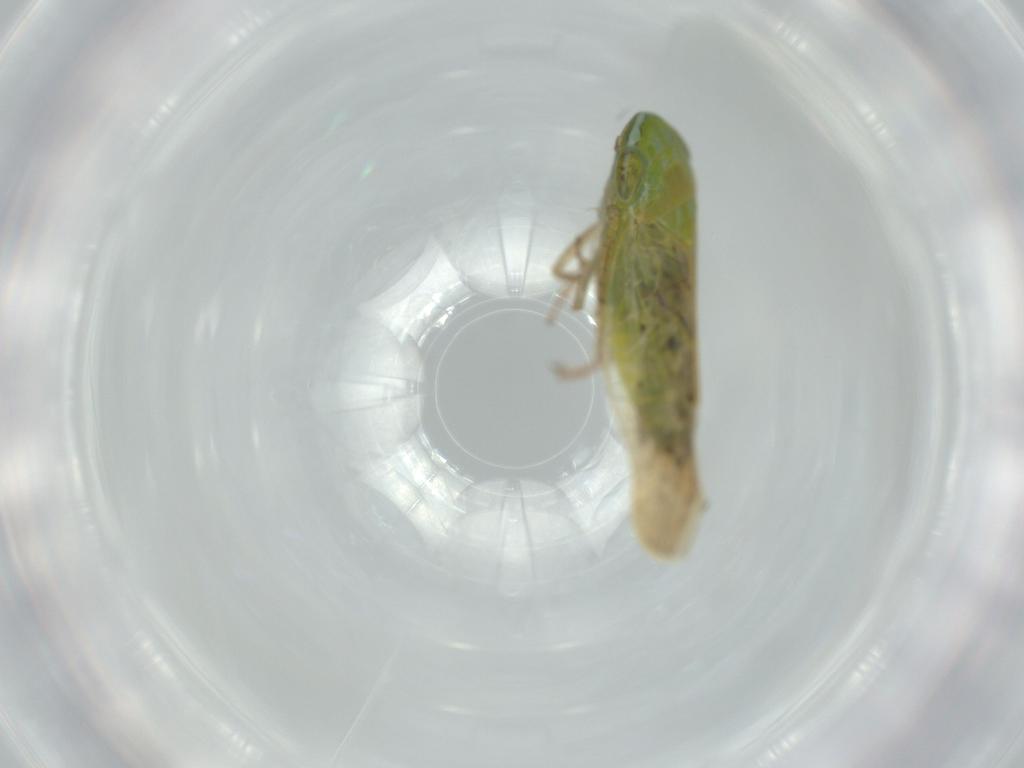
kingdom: Animalia
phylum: Arthropoda
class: Insecta
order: Hemiptera
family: Cicadellidae
